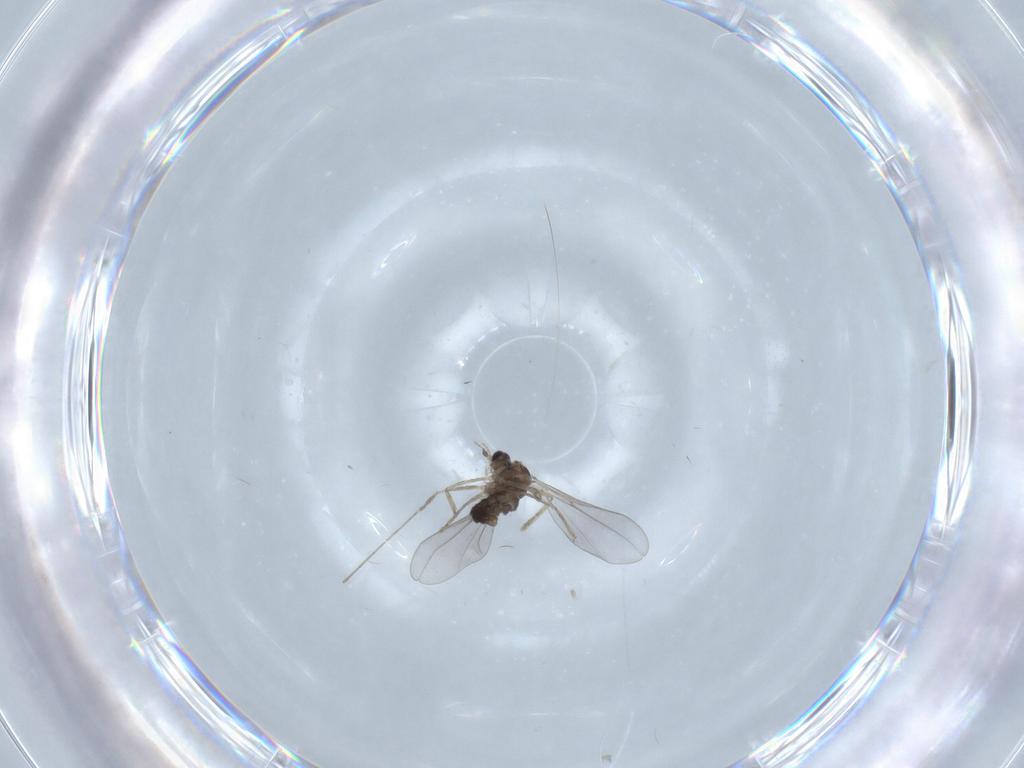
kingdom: Animalia
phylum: Arthropoda
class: Insecta
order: Diptera
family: Cecidomyiidae
